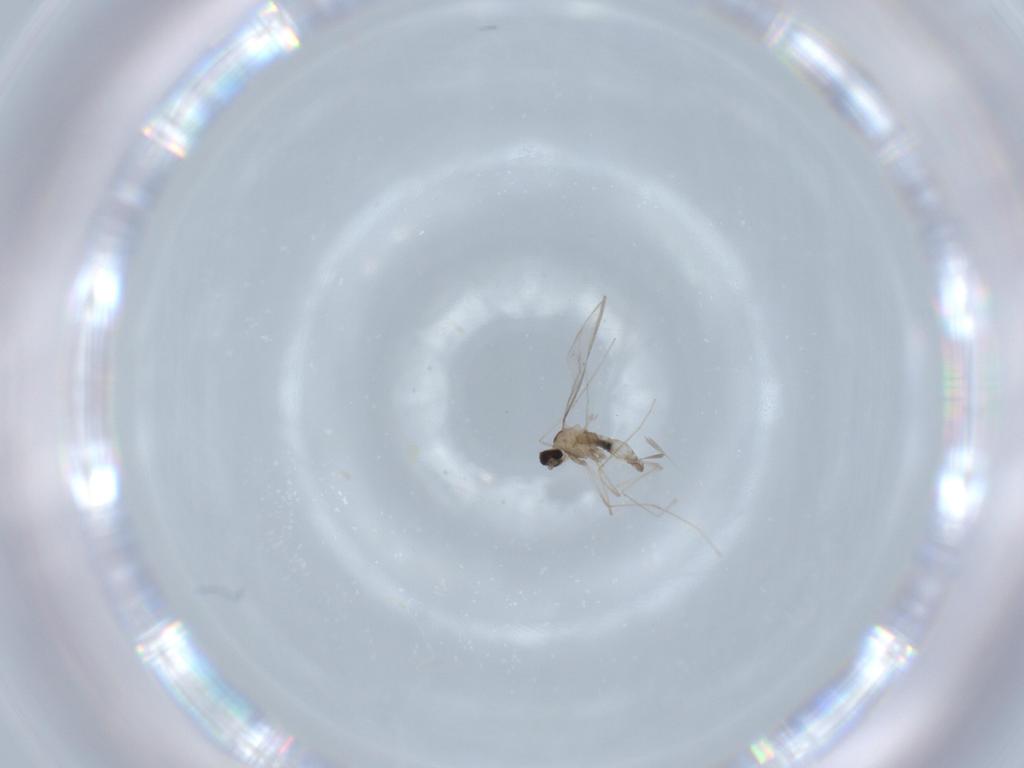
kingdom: Animalia
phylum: Arthropoda
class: Insecta
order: Diptera
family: Cecidomyiidae
